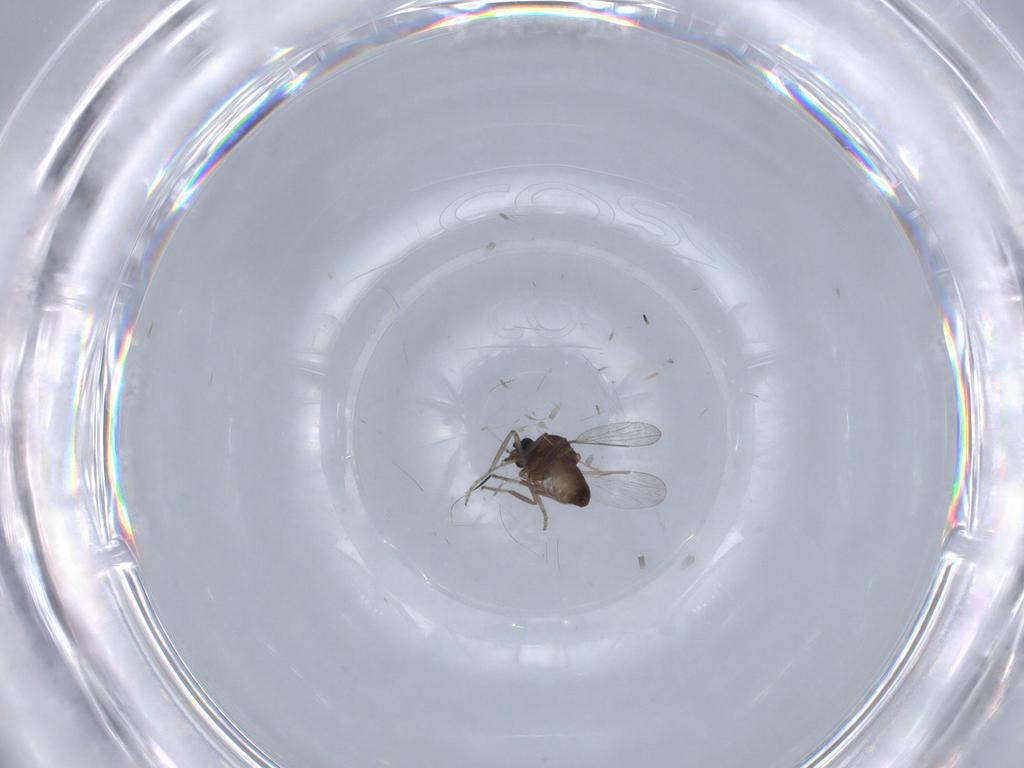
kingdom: Animalia
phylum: Arthropoda
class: Insecta
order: Diptera
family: Ceratopogonidae
